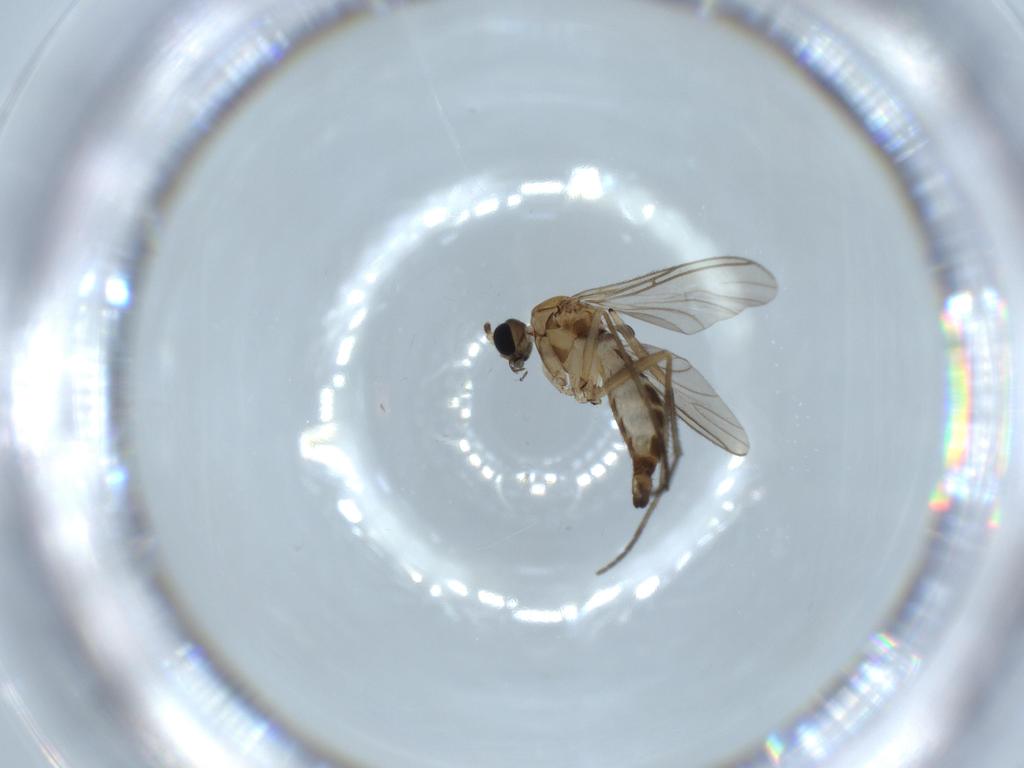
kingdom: Animalia
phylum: Arthropoda
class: Insecta
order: Diptera
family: Sciaridae
